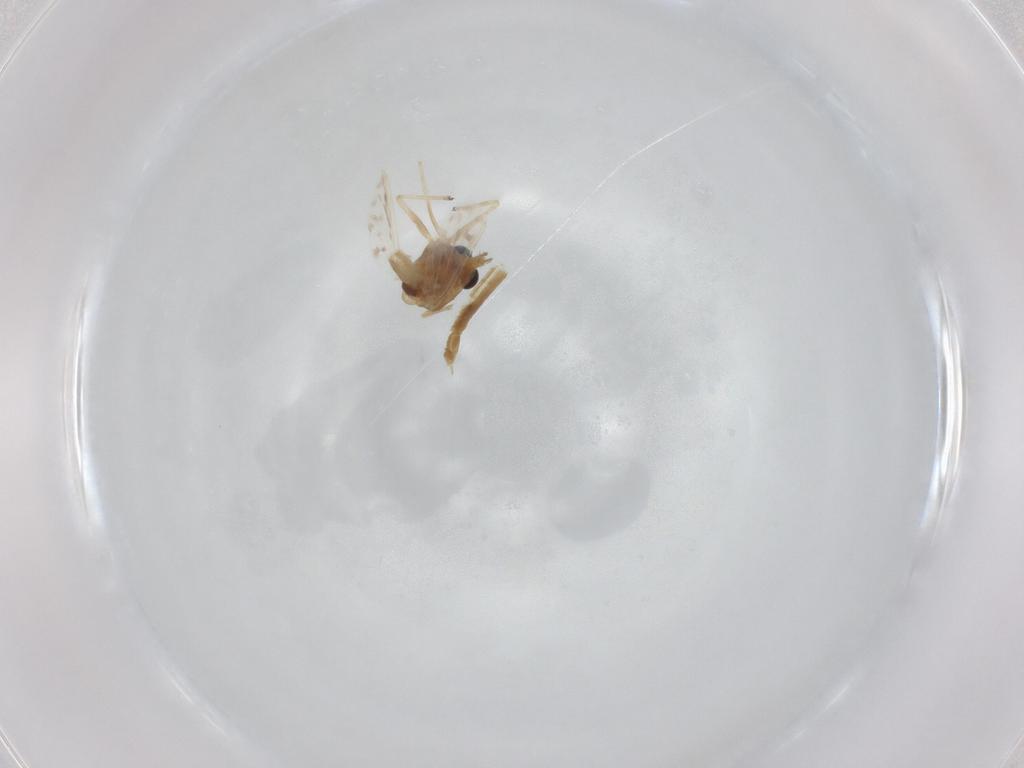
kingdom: Animalia
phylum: Arthropoda
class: Insecta
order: Diptera
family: Chironomidae
